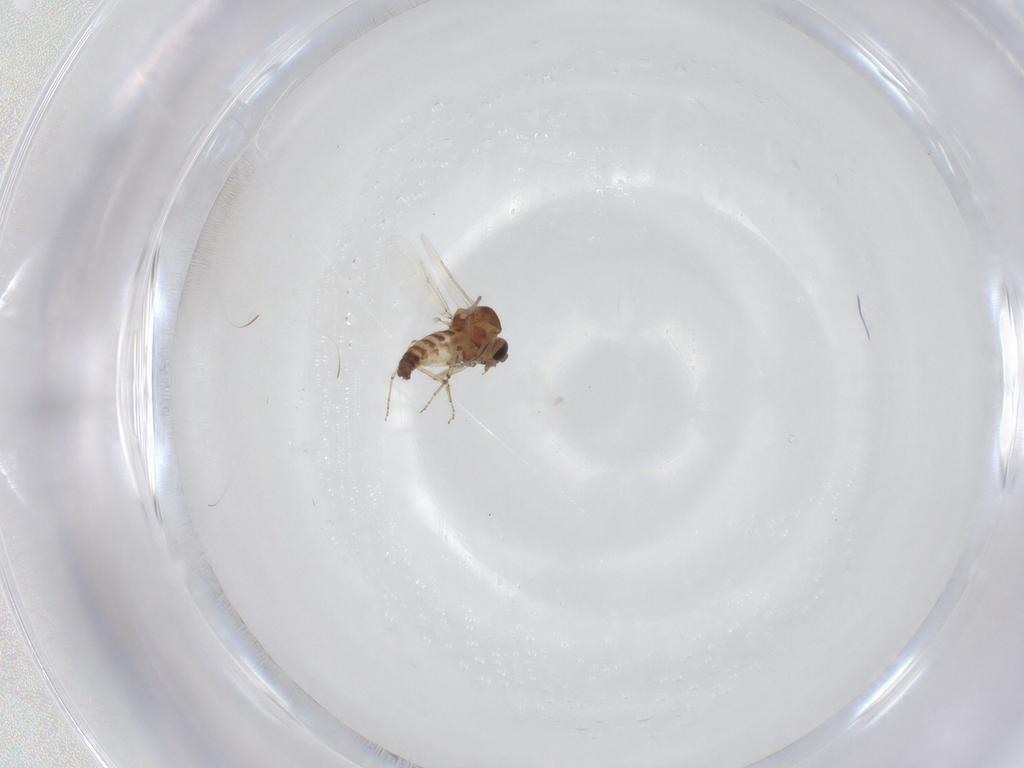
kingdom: Animalia
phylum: Arthropoda
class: Insecta
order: Diptera
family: Ceratopogonidae
